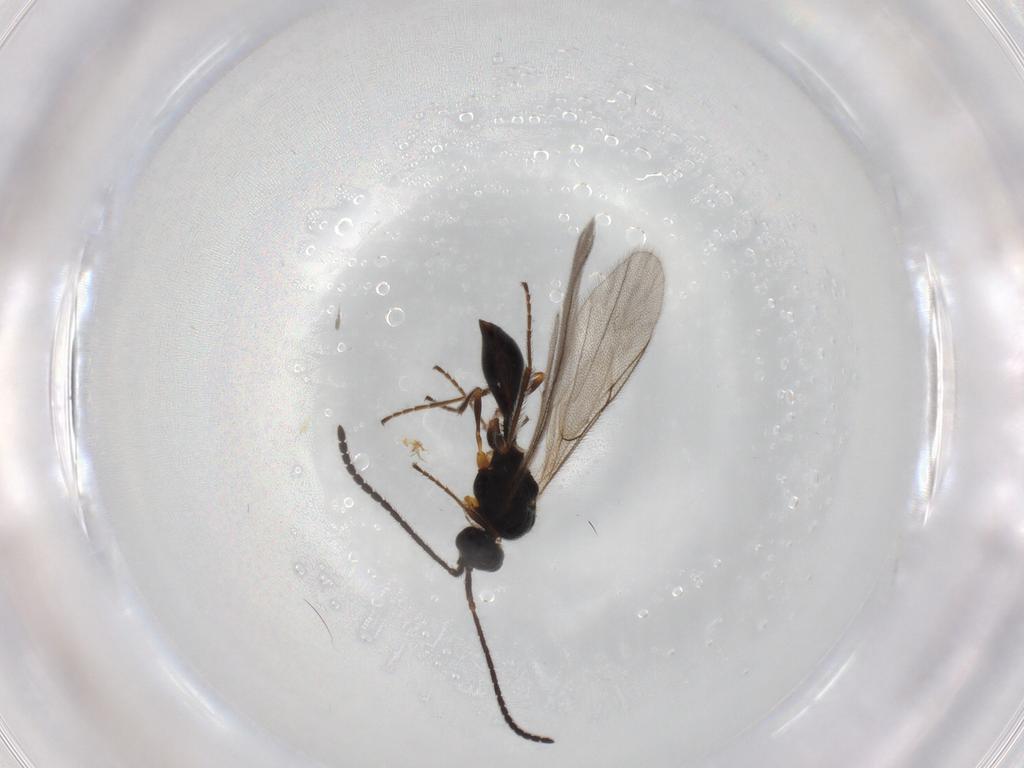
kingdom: Animalia
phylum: Arthropoda
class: Insecta
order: Hymenoptera
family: Diapriidae
